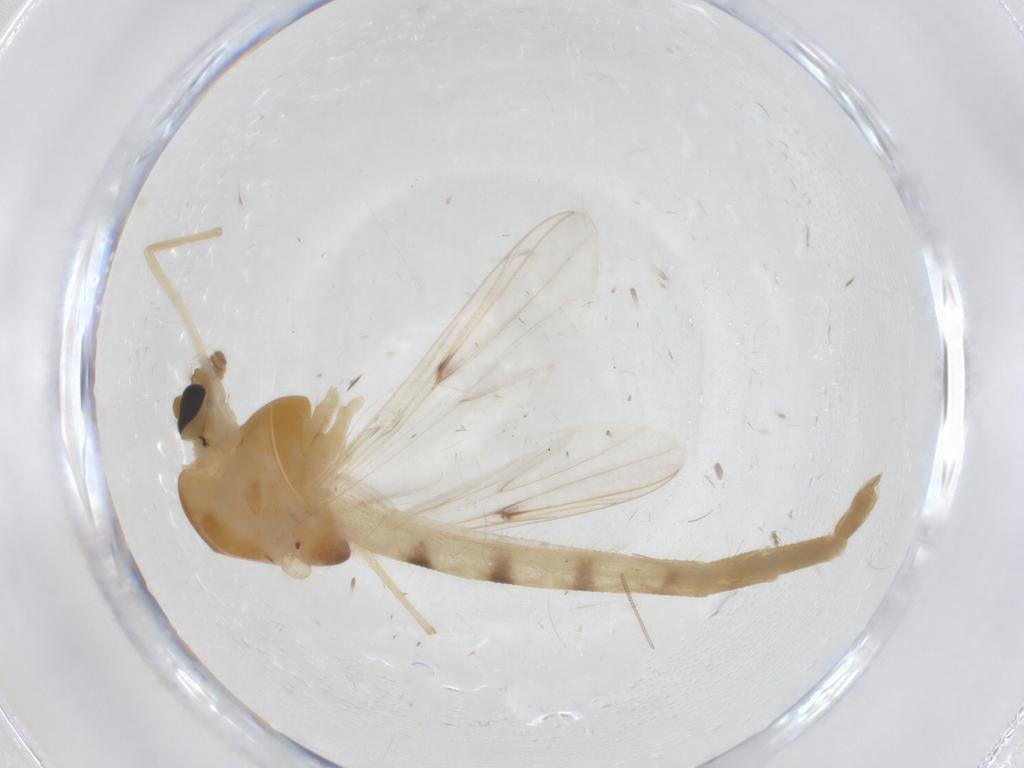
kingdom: Animalia
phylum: Arthropoda
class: Insecta
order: Diptera
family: Chironomidae
